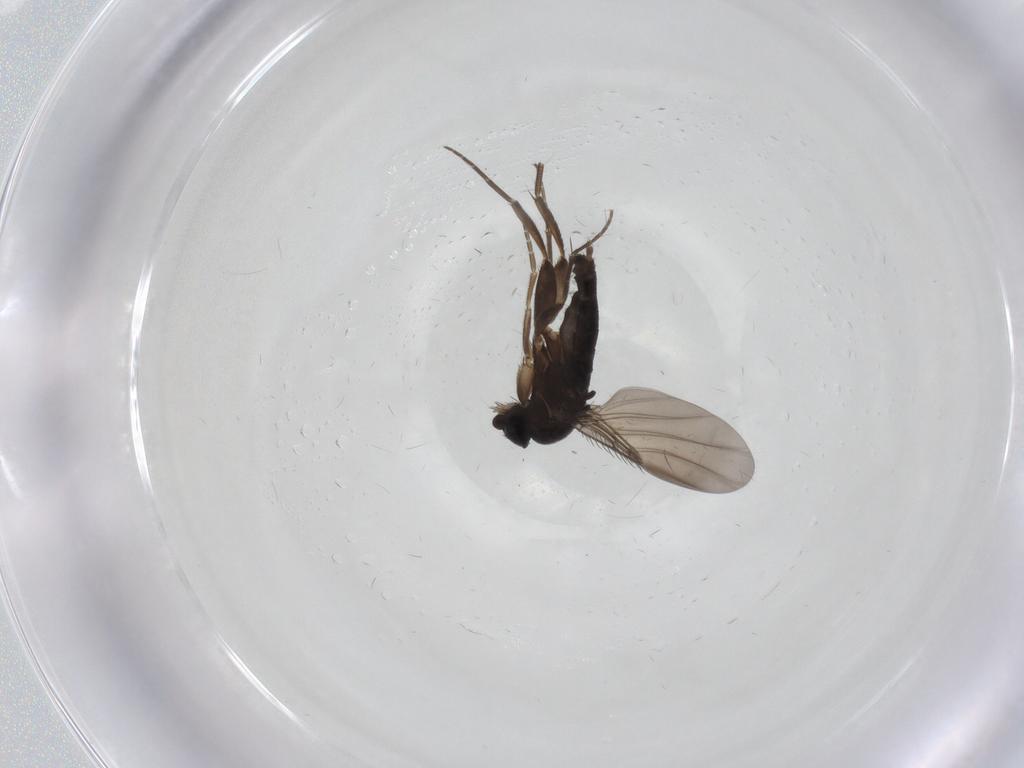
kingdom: Animalia
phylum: Arthropoda
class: Insecta
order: Diptera
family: Phoridae
